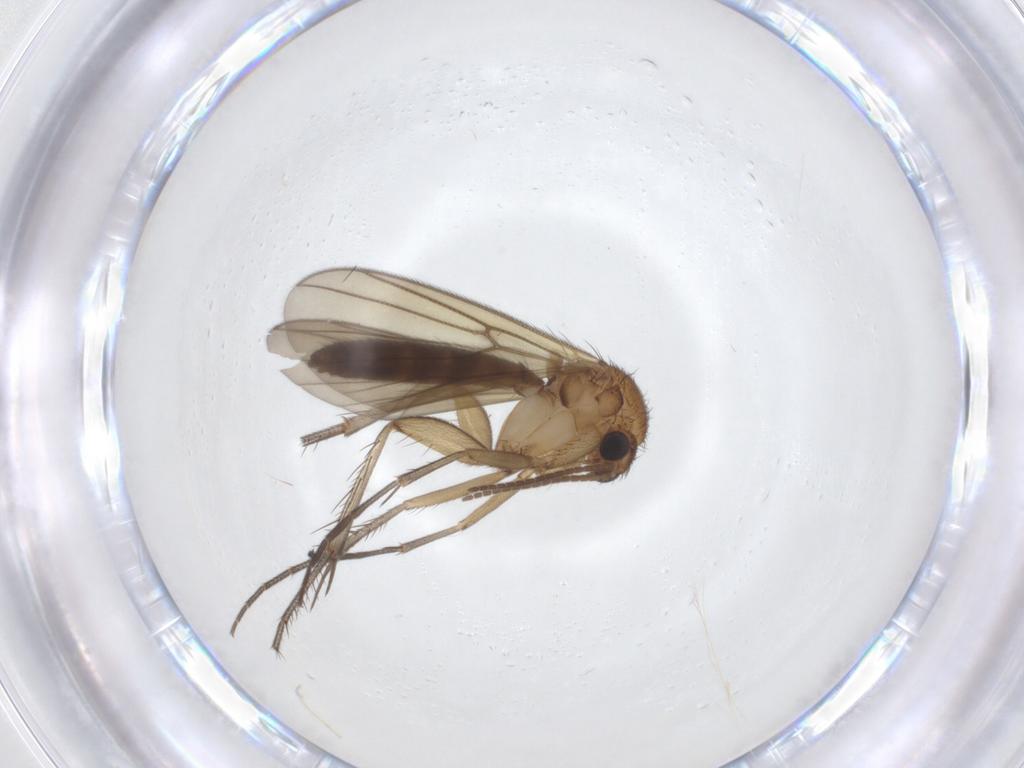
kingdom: Animalia
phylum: Arthropoda
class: Insecta
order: Diptera
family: Mycetophilidae
